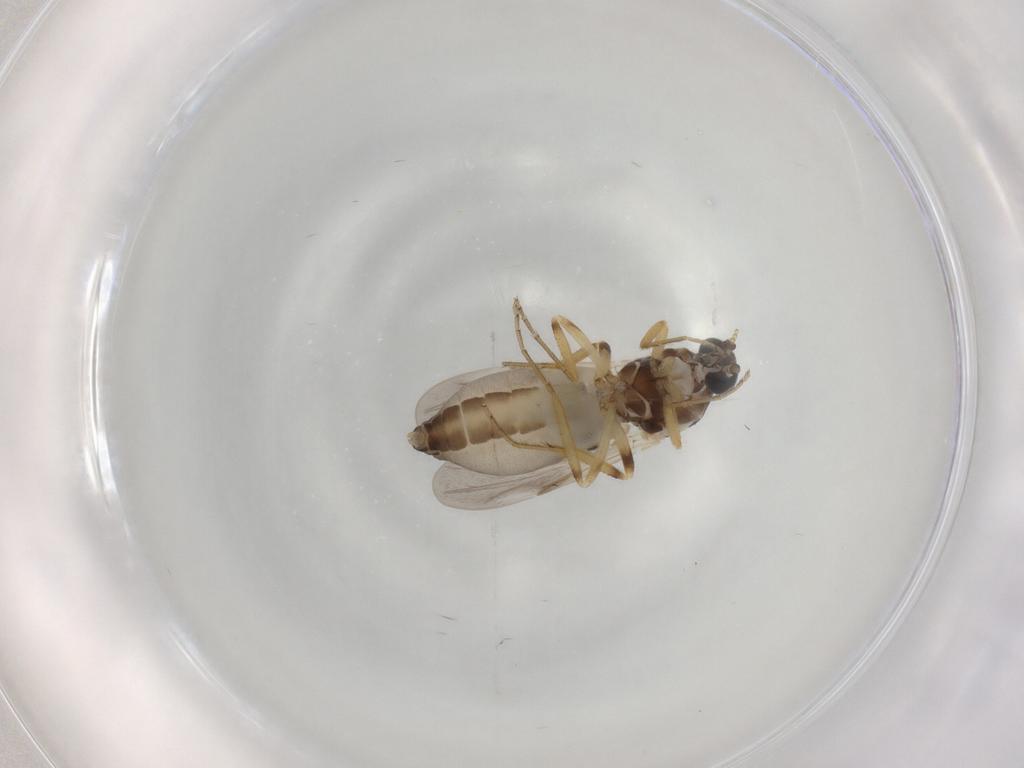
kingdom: Animalia
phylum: Arthropoda
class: Insecta
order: Diptera
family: Ceratopogonidae
